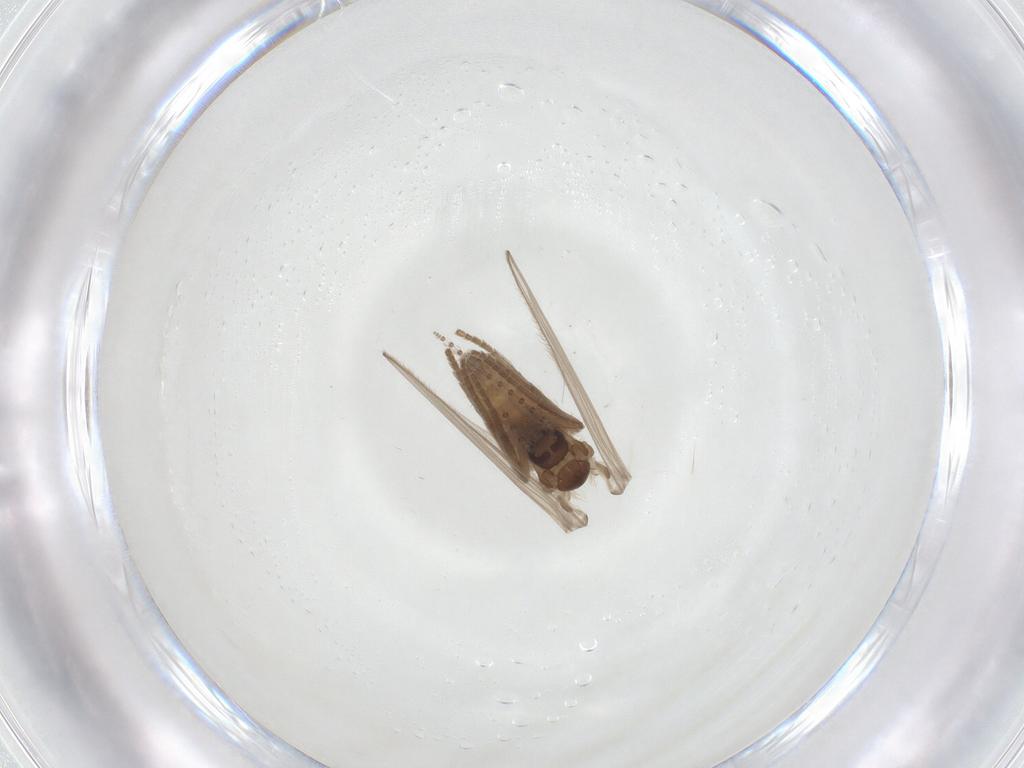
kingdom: Animalia
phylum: Arthropoda
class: Insecta
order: Diptera
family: Psychodidae
